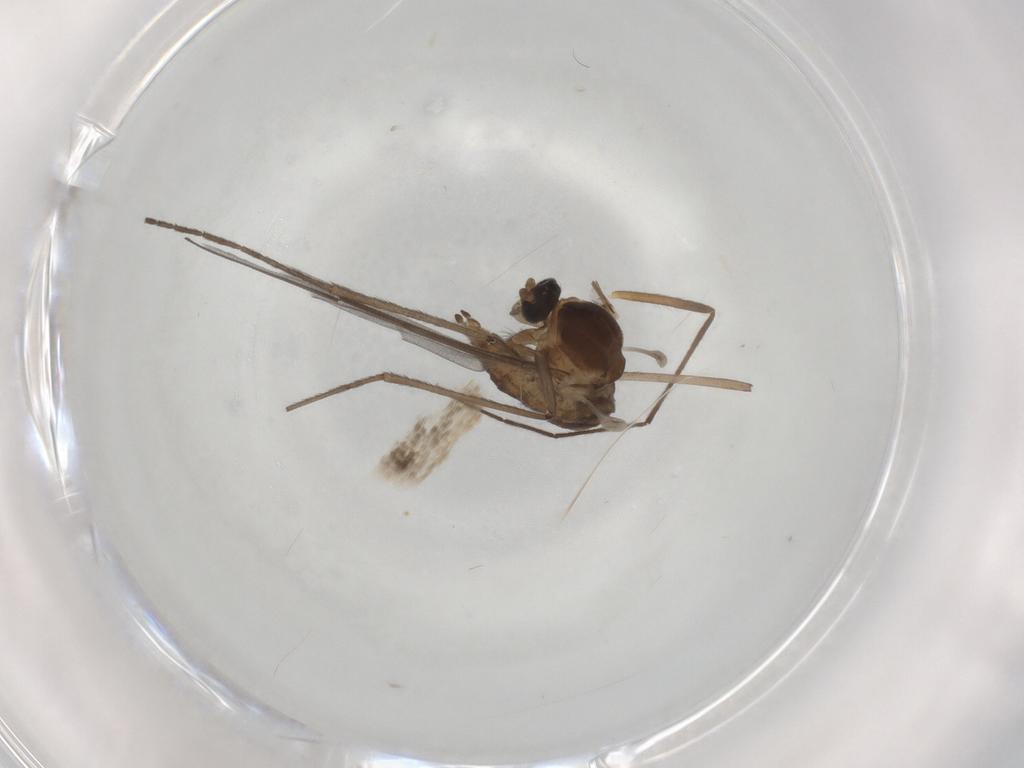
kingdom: Animalia
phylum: Arthropoda
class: Insecta
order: Diptera
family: Cecidomyiidae
